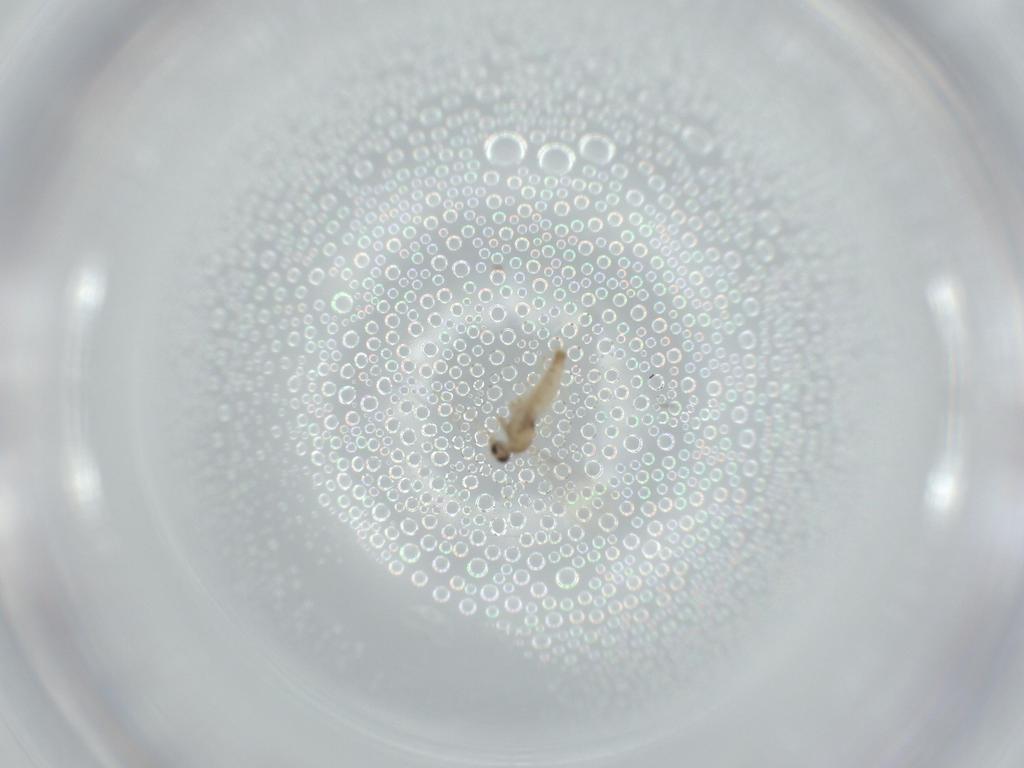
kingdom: Animalia
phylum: Arthropoda
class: Insecta
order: Diptera
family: Cecidomyiidae
